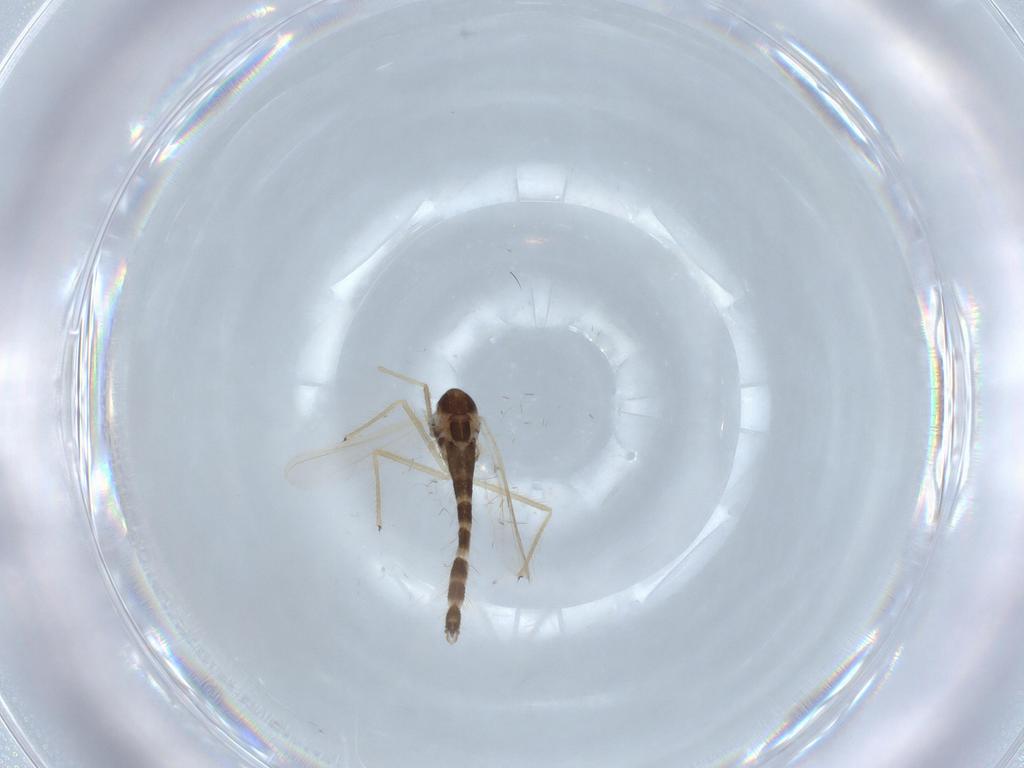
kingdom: Animalia
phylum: Arthropoda
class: Insecta
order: Diptera
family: Chironomidae
